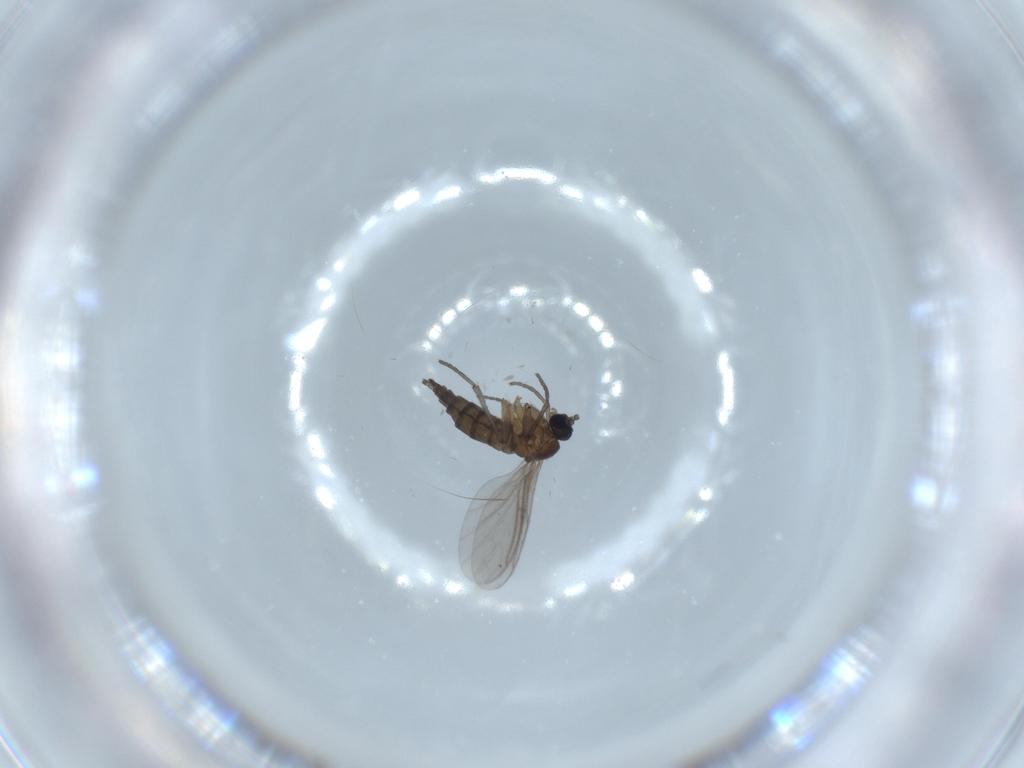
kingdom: Animalia
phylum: Arthropoda
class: Insecta
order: Diptera
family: Sciaridae
